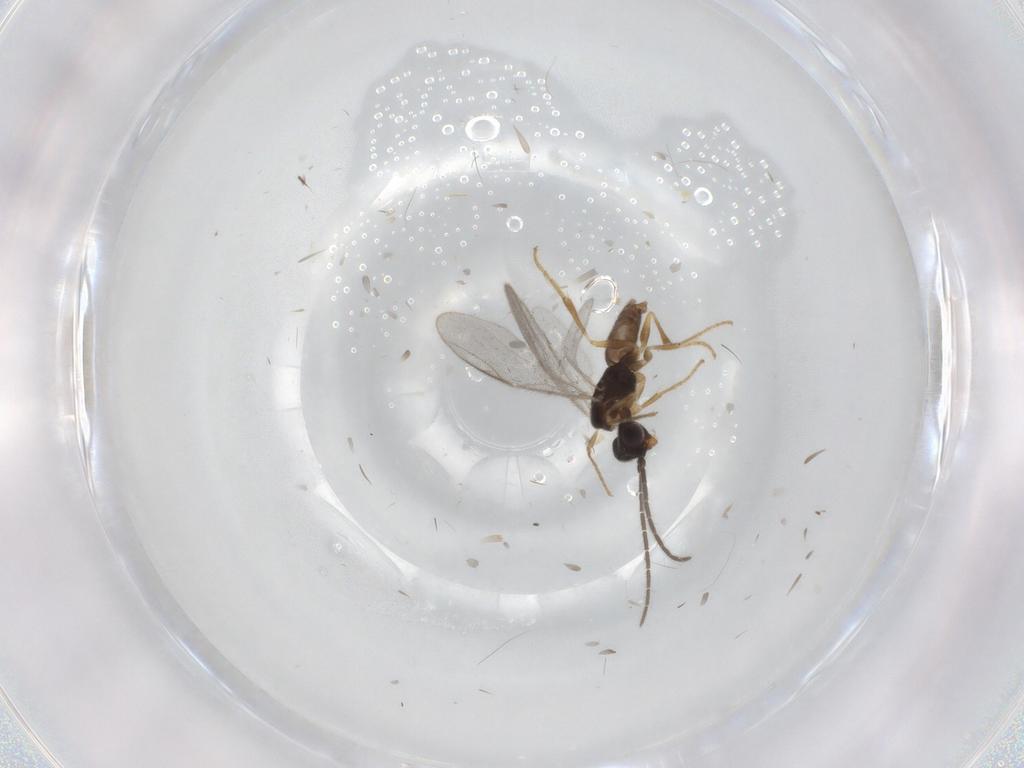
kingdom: Animalia
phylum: Arthropoda
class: Insecta
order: Hymenoptera
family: Dryinidae
